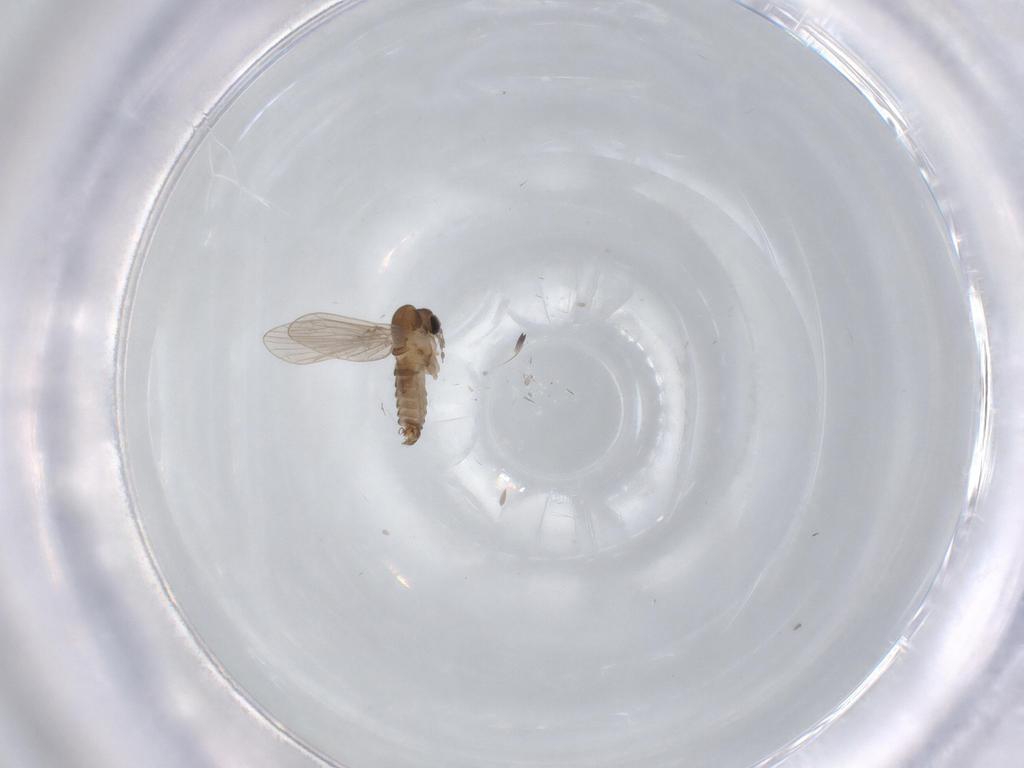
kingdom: Animalia
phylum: Arthropoda
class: Insecta
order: Diptera
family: Psychodidae
